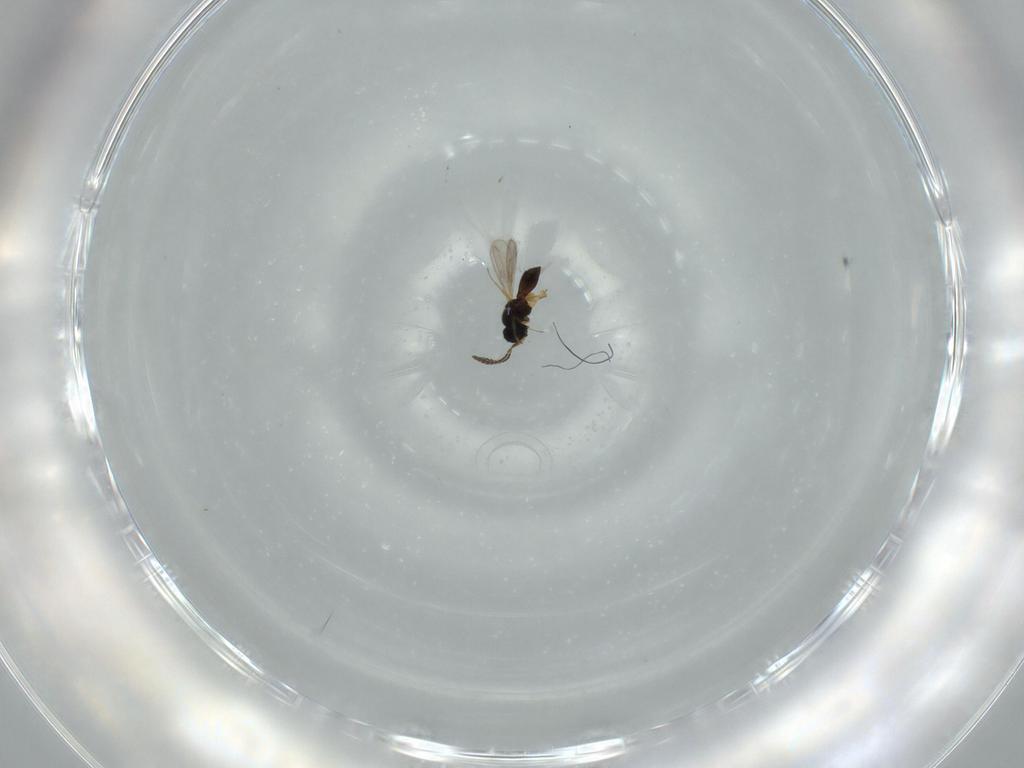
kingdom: Animalia
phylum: Arthropoda
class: Insecta
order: Hymenoptera
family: Scelionidae
